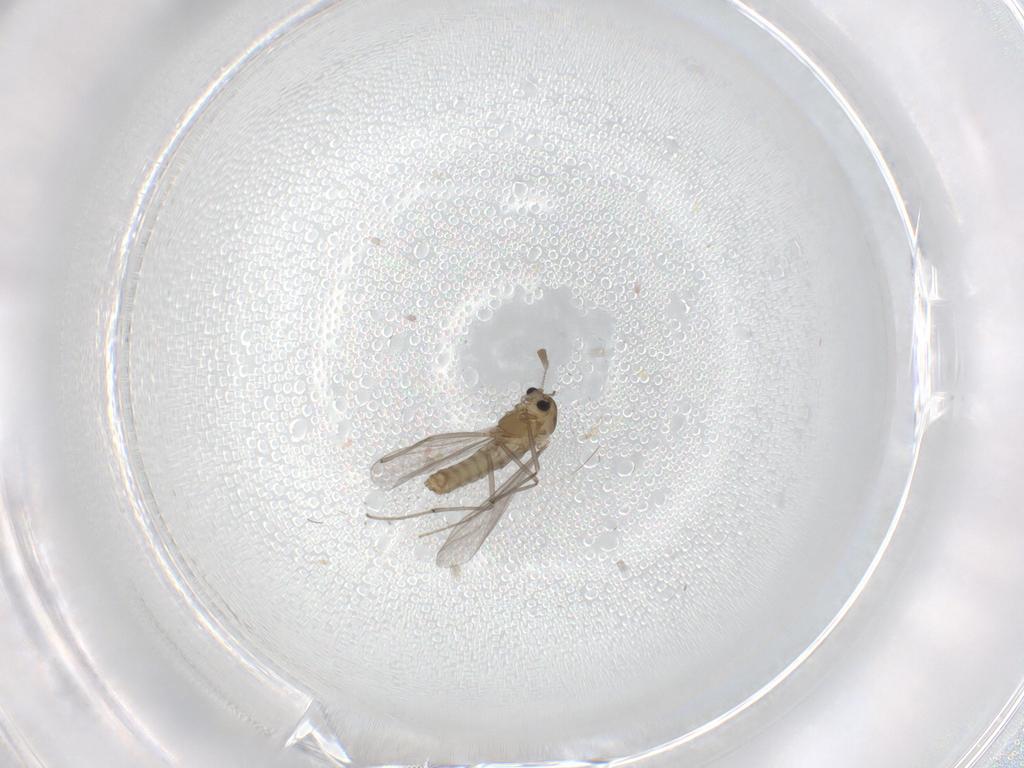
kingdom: Animalia
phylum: Arthropoda
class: Insecta
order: Diptera
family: Chironomidae
